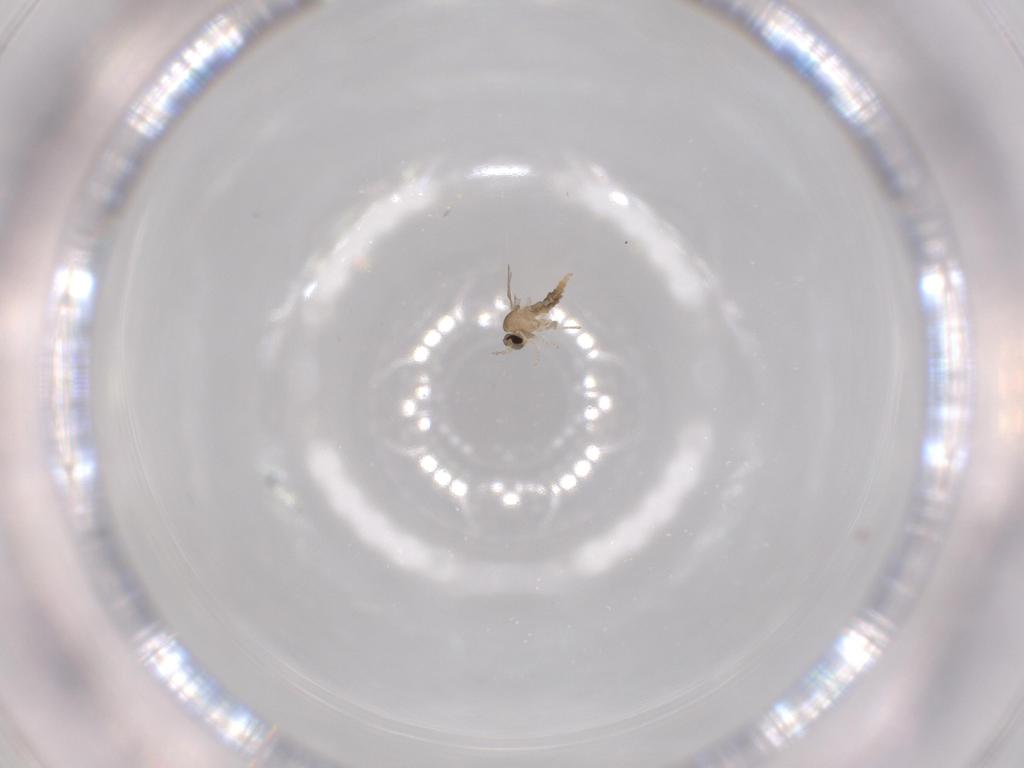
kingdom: Animalia
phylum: Arthropoda
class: Insecta
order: Diptera
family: Cecidomyiidae
